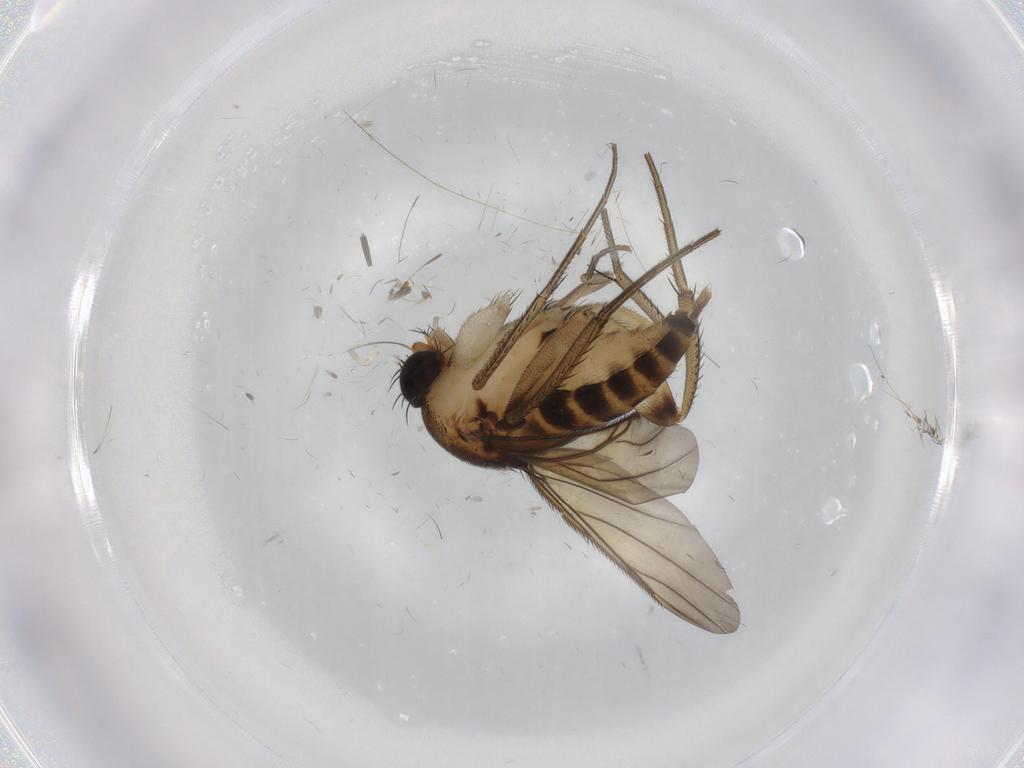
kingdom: Animalia
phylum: Arthropoda
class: Insecta
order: Diptera
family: Phoridae
